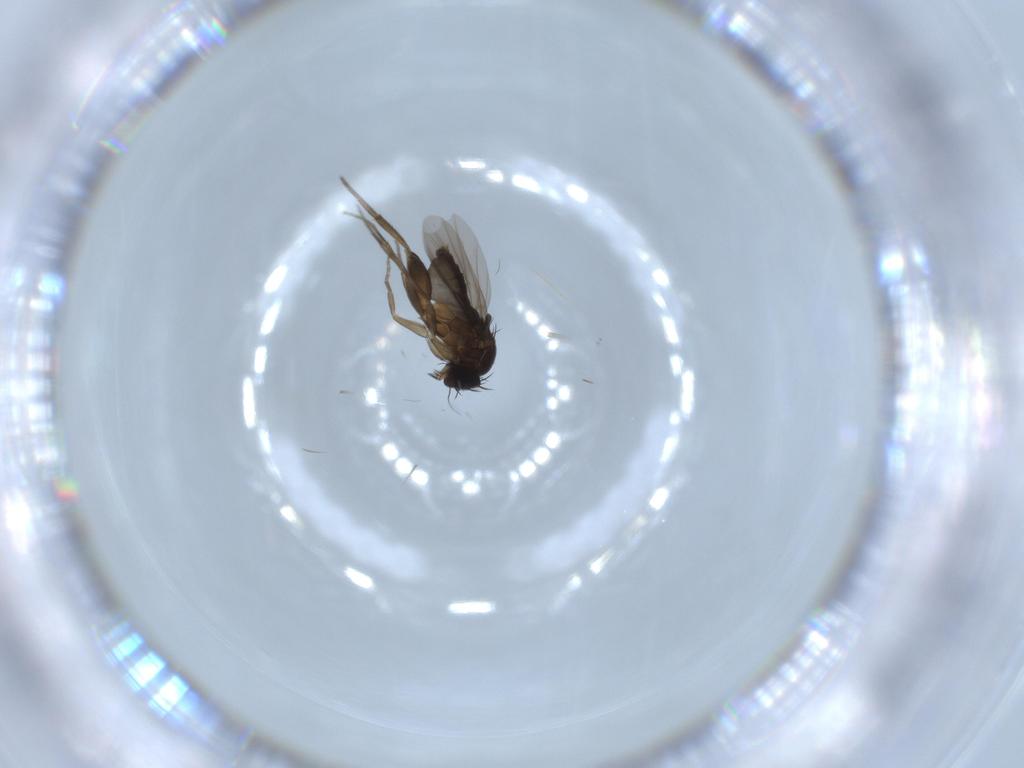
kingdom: Animalia
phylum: Arthropoda
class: Insecta
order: Diptera
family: Phoridae
